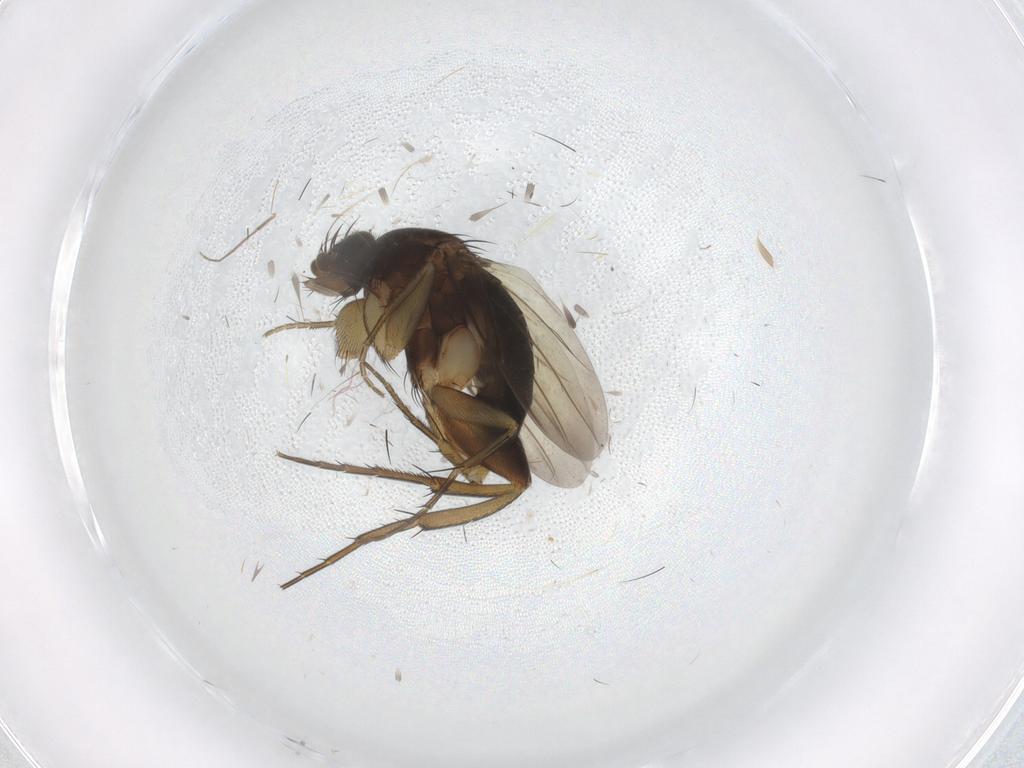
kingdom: Animalia
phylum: Arthropoda
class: Insecta
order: Diptera
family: Phoridae
